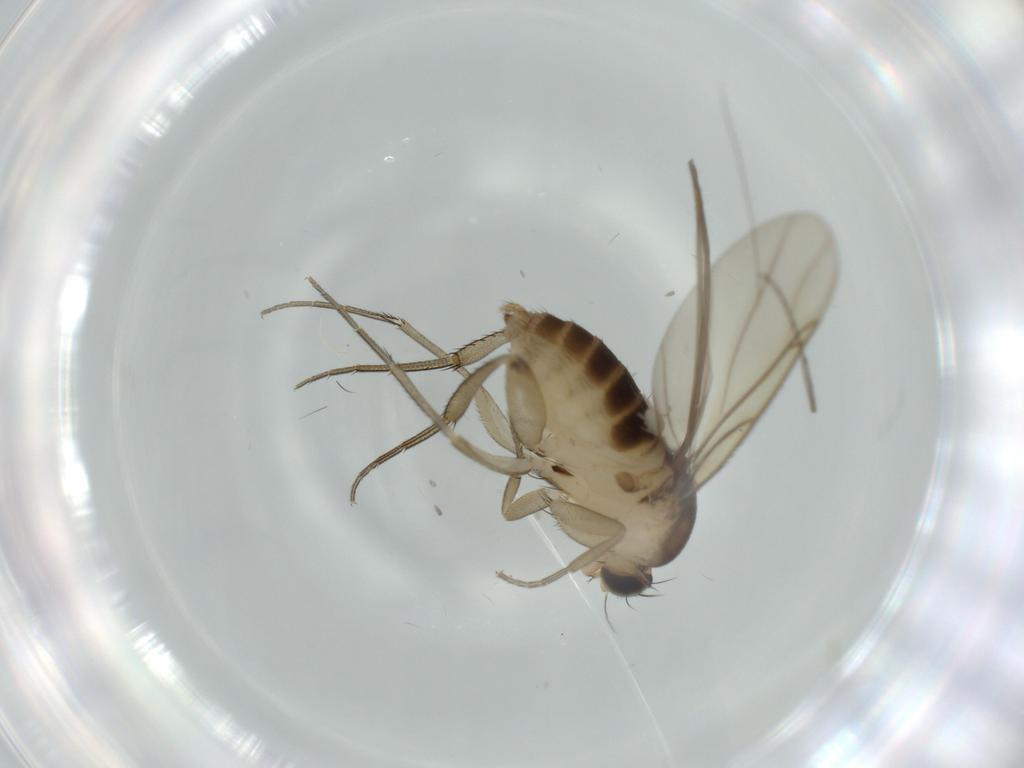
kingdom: Animalia
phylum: Arthropoda
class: Insecta
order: Diptera
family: Phoridae
